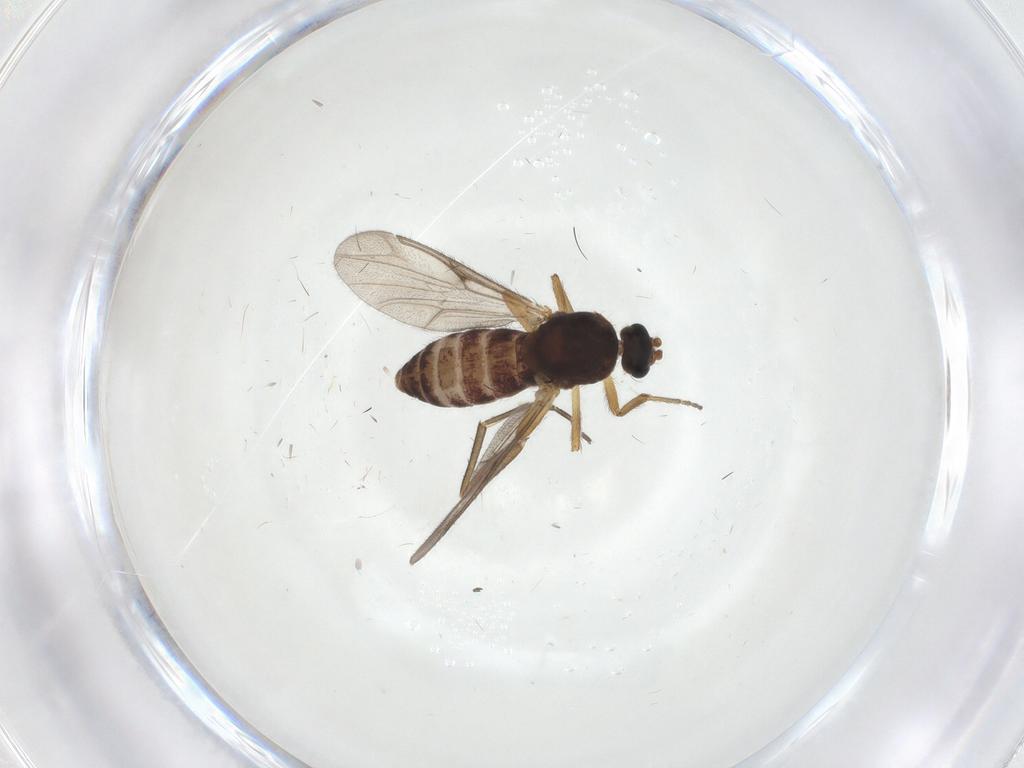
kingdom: Animalia
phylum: Arthropoda
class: Insecta
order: Diptera
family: Ceratopogonidae
